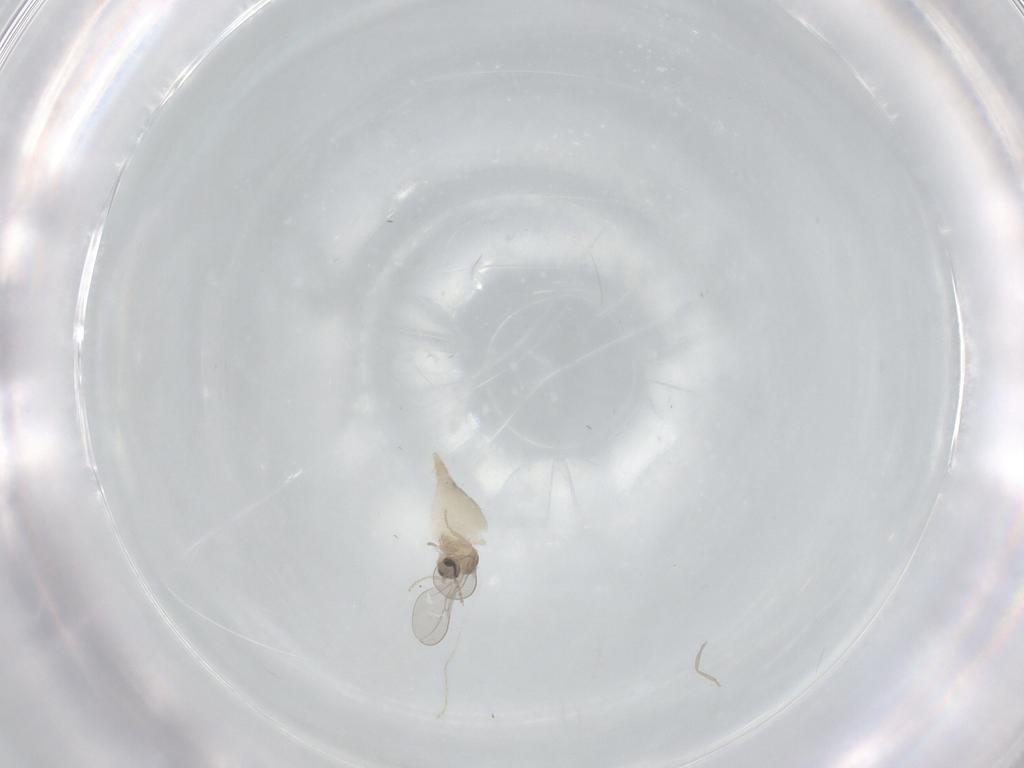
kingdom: Animalia
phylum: Arthropoda
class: Insecta
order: Diptera
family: Cecidomyiidae
